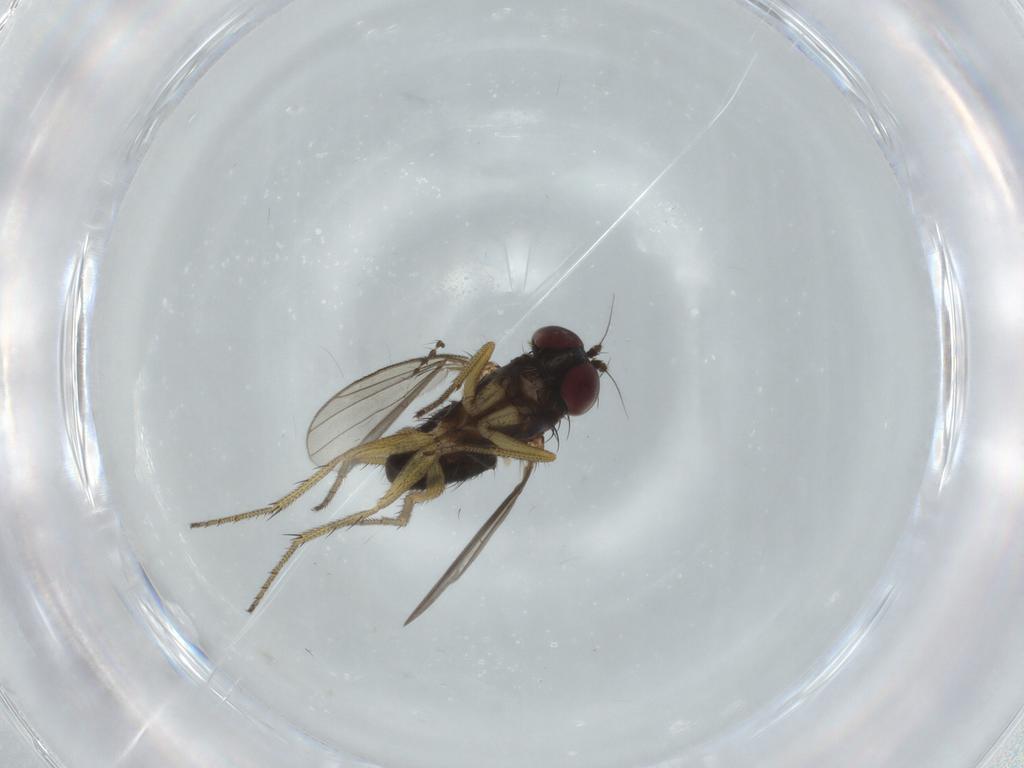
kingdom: Animalia
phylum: Arthropoda
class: Insecta
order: Diptera
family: Dolichopodidae
